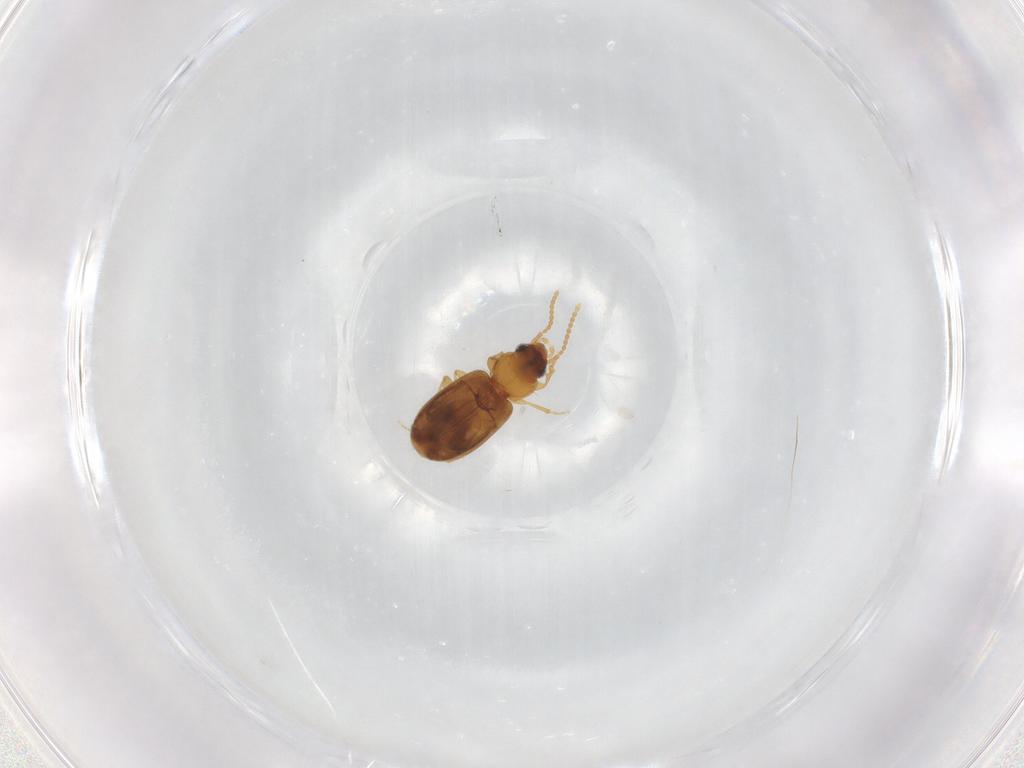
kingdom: Animalia
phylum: Arthropoda
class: Insecta
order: Coleoptera
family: Carabidae
